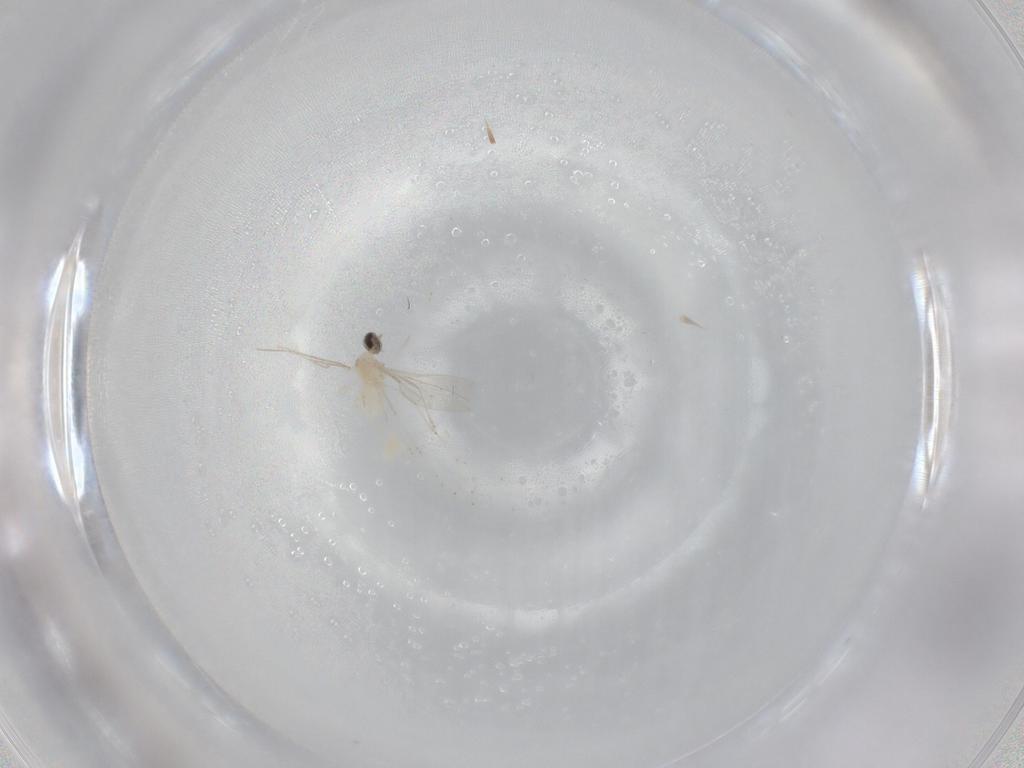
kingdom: Animalia
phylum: Arthropoda
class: Insecta
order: Diptera
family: Cecidomyiidae
